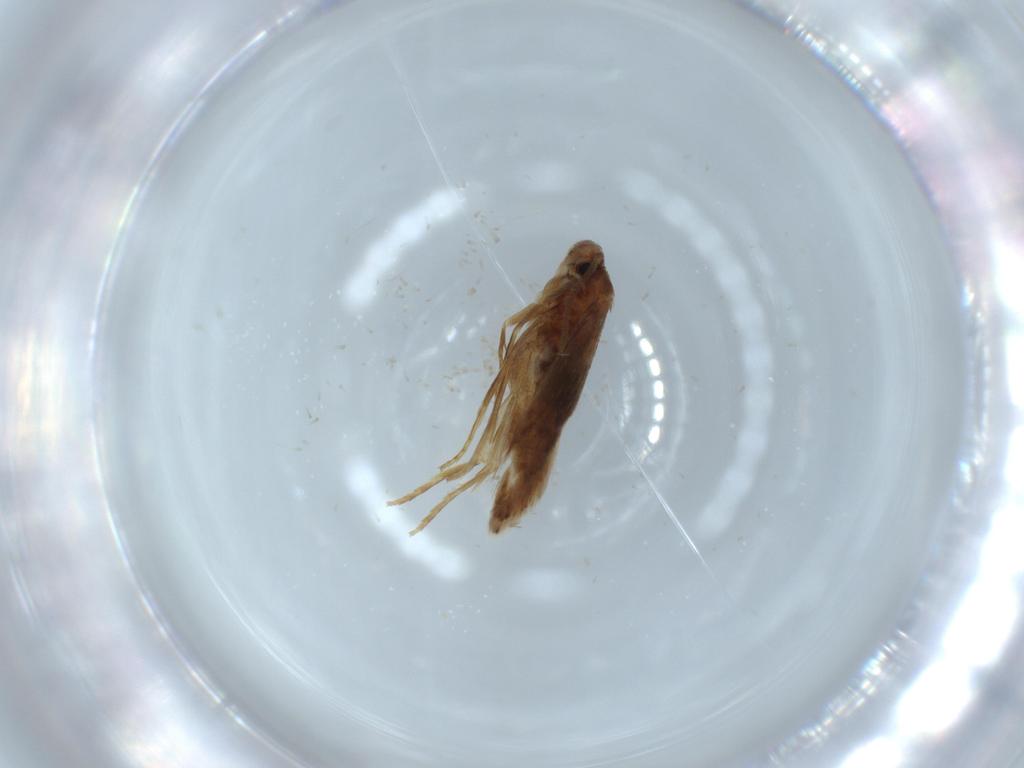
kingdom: Animalia
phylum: Arthropoda
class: Insecta
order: Lepidoptera
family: Heliozelidae
